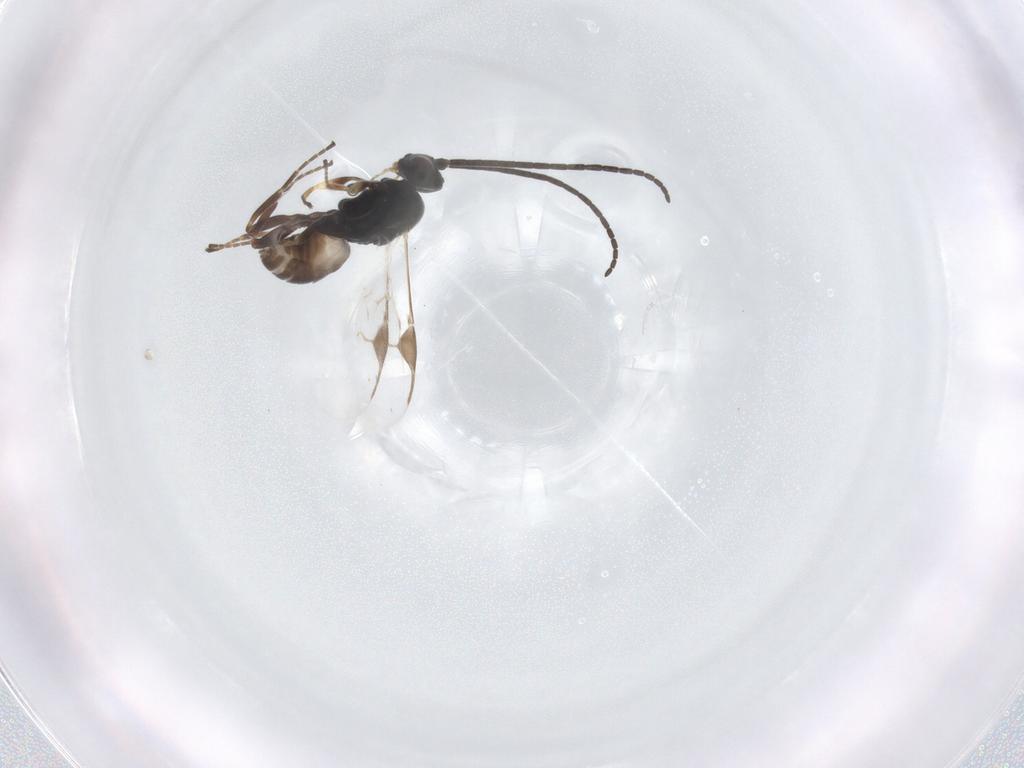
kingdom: Animalia
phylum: Arthropoda
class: Insecta
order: Hymenoptera
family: Braconidae
